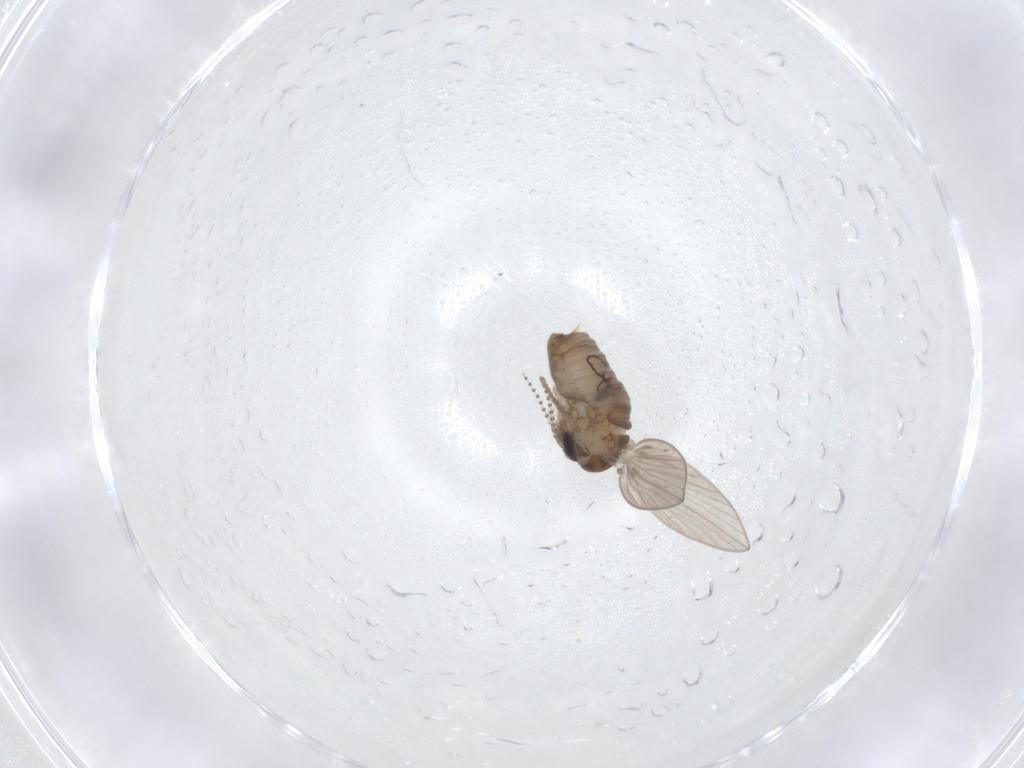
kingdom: Animalia
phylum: Arthropoda
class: Insecta
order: Diptera
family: Psychodidae
